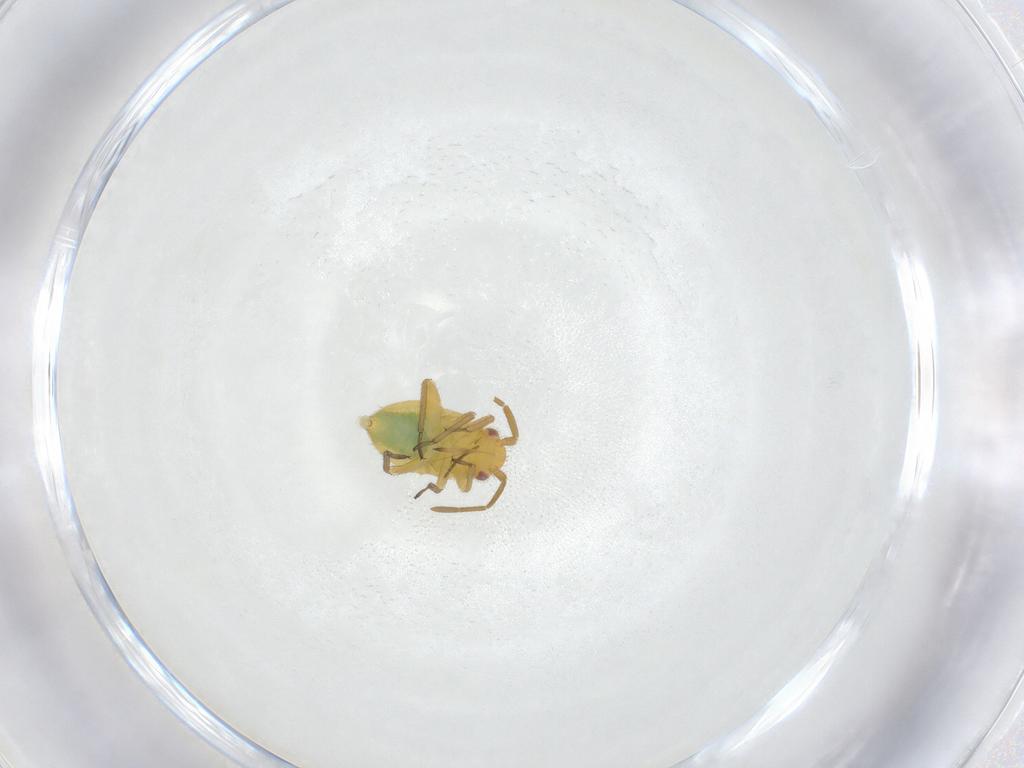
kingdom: Animalia
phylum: Arthropoda
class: Insecta
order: Hemiptera
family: Miridae
